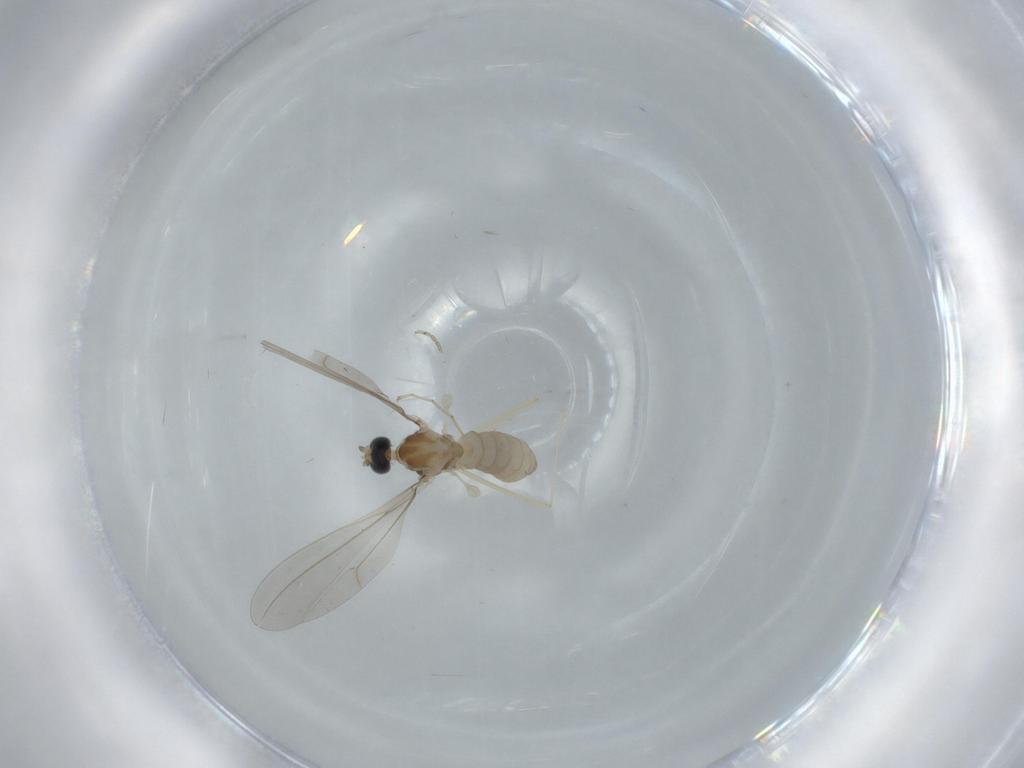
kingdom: Animalia
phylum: Arthropoda
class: Insecta
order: Diptera
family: Cecidomyiidae
